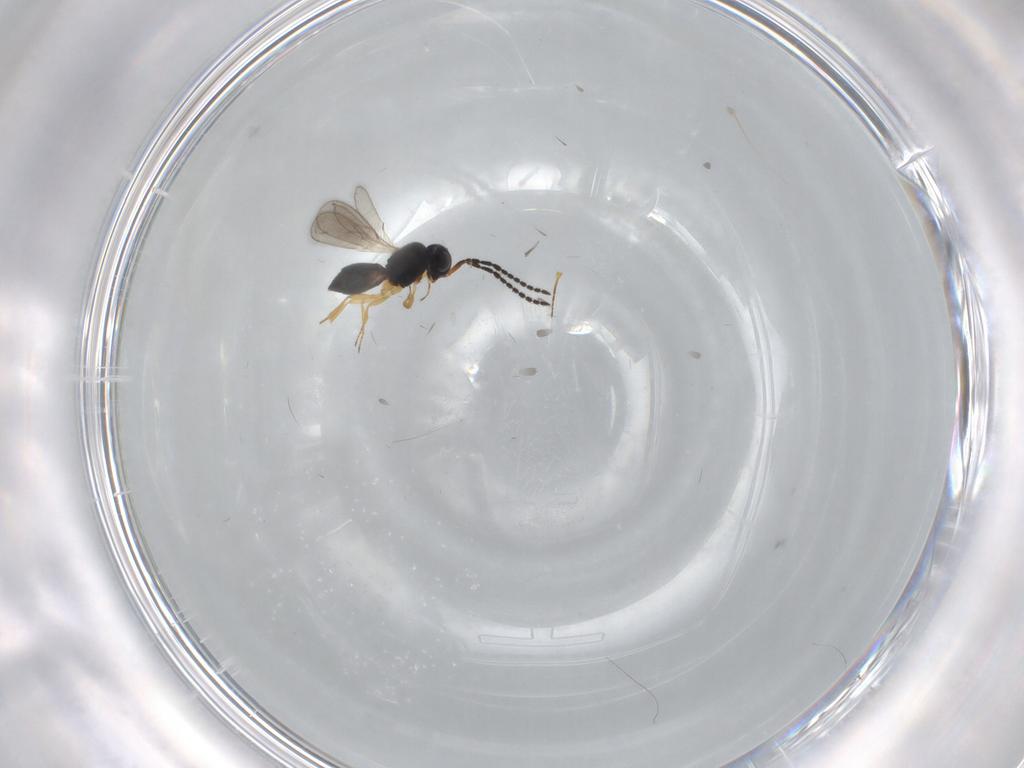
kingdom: Animalia
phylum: Arthropoda
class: Insecta
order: Hymenoptera
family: Scelionidae
